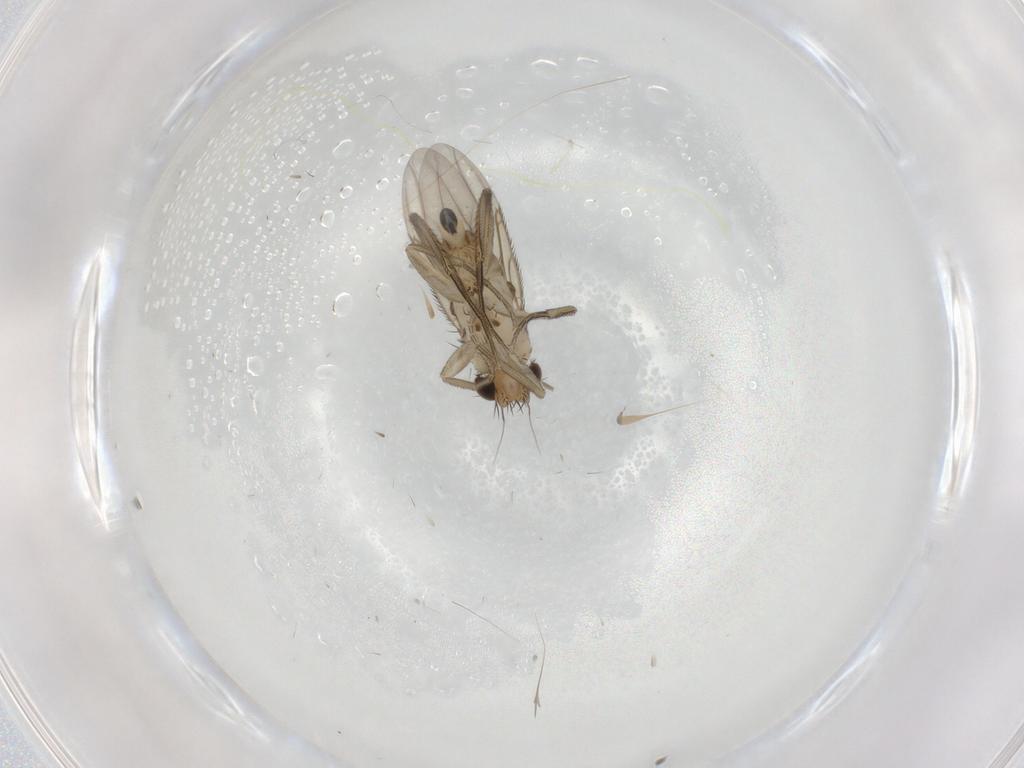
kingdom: Animalia
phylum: Arthropoda
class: Insecta
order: Diptera
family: Phoridae
